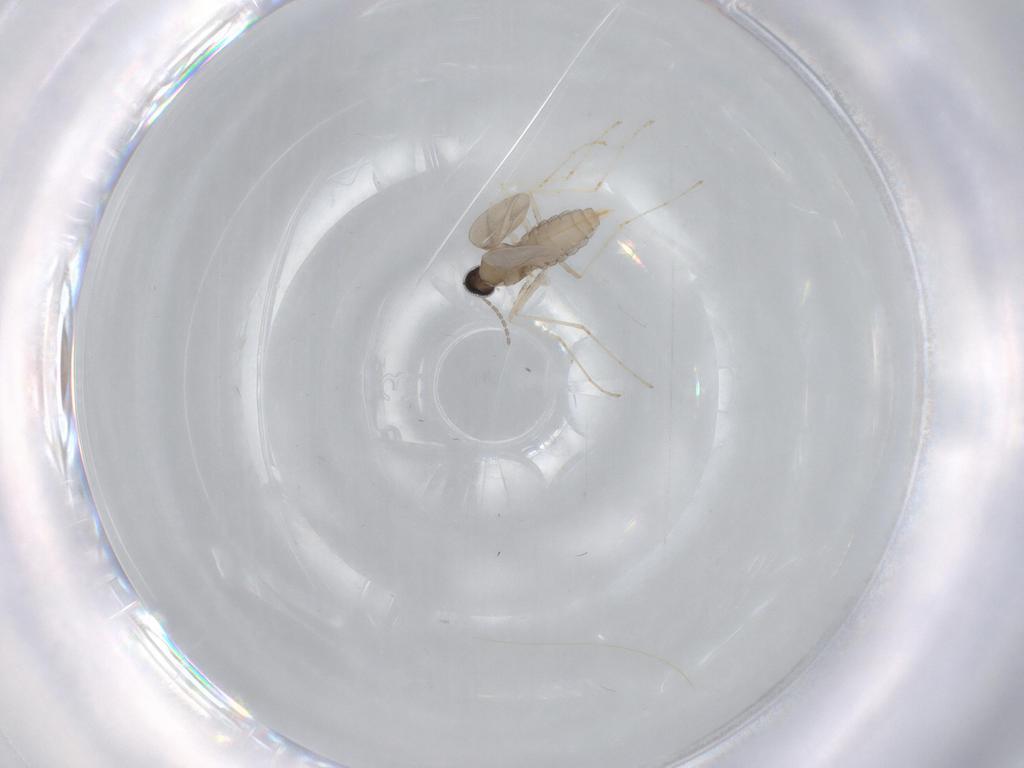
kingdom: Animalia
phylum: Arthropoda
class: Insecta
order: Diptera
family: Cecidomyiidae
